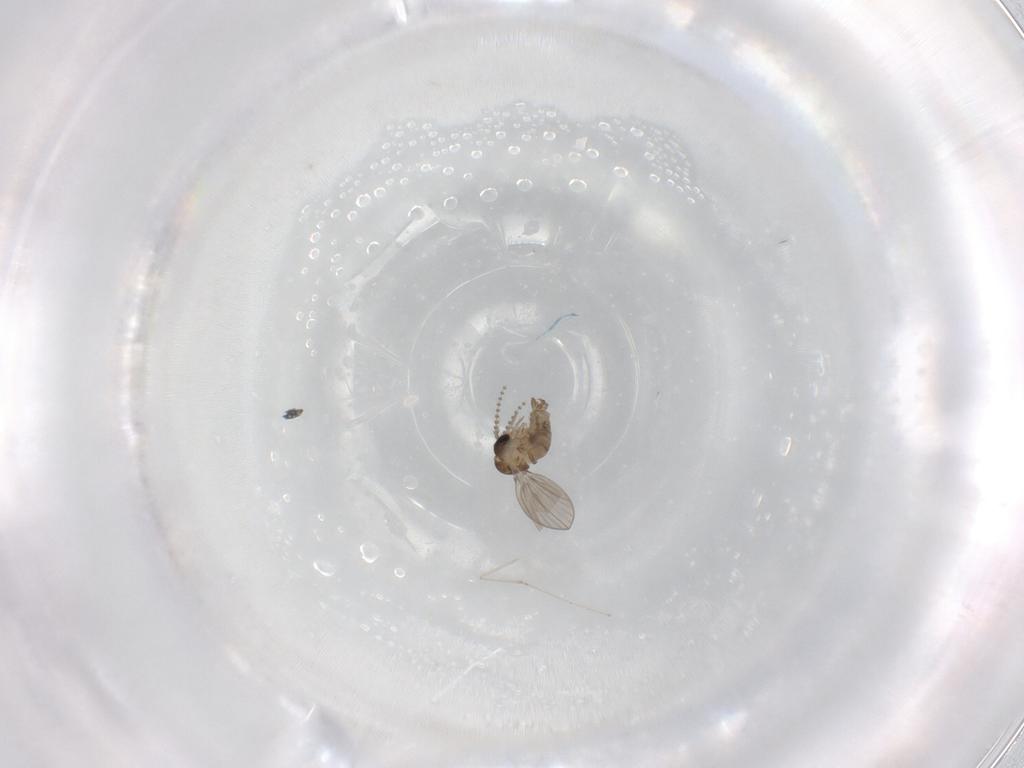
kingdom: Animalia
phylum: Arthropoda
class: Insecta
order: Diptera
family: Psychodidae
